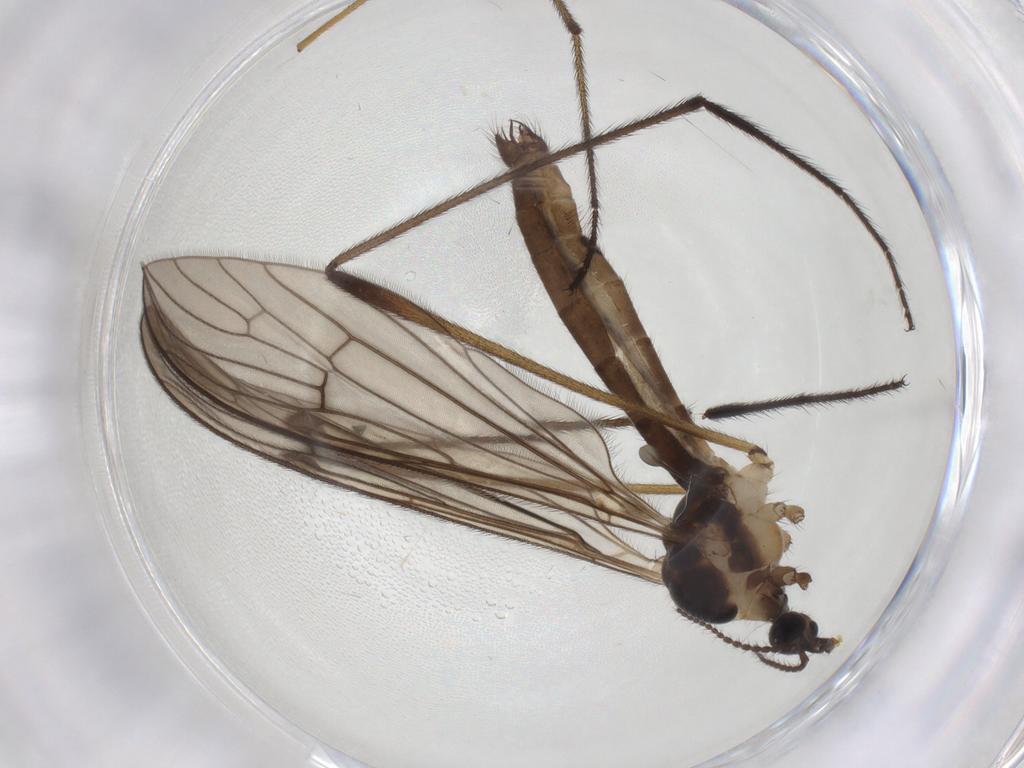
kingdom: Animalia
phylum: Arthropoda
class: Insecta
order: Diptera
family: Limoniidae
